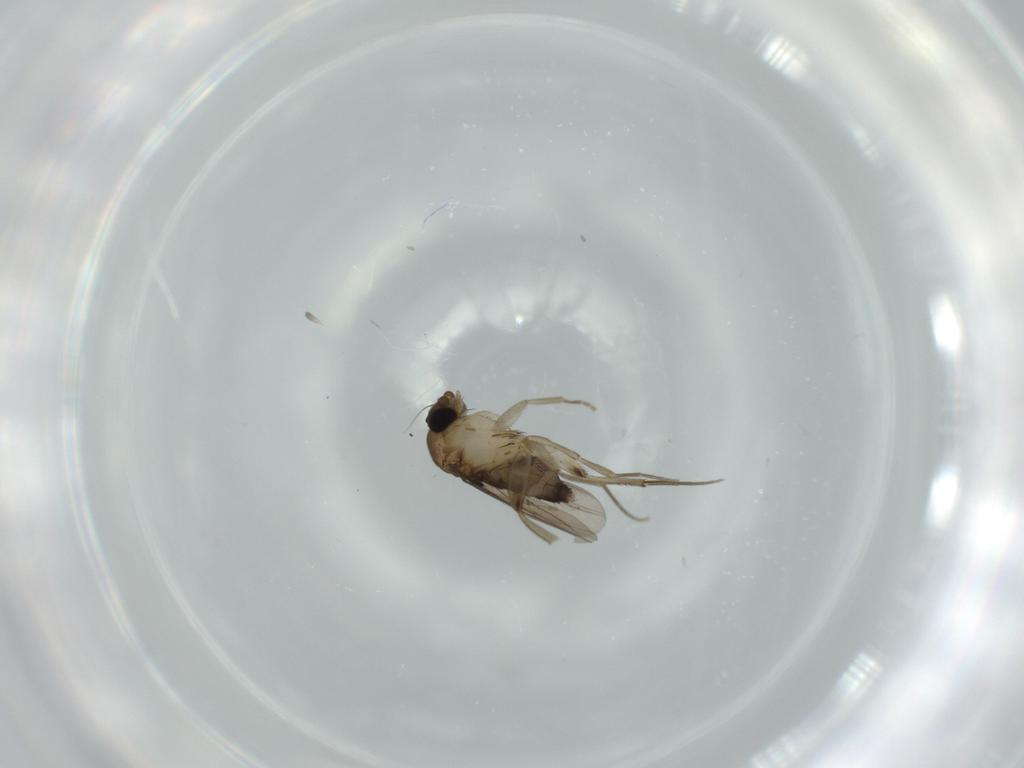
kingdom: Animalia
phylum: Arthropoda
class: Insecta
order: Diptera
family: Phoridae
